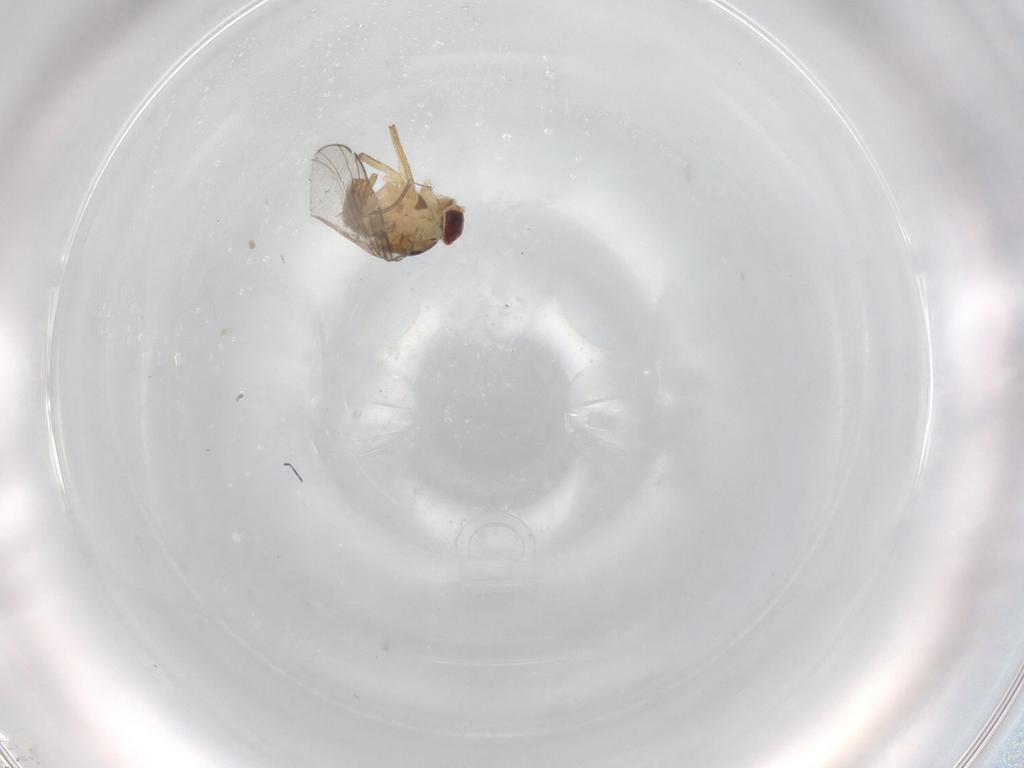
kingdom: Animalia
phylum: Arthropoda
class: Insecta
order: Diptera
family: Agromyzidae
